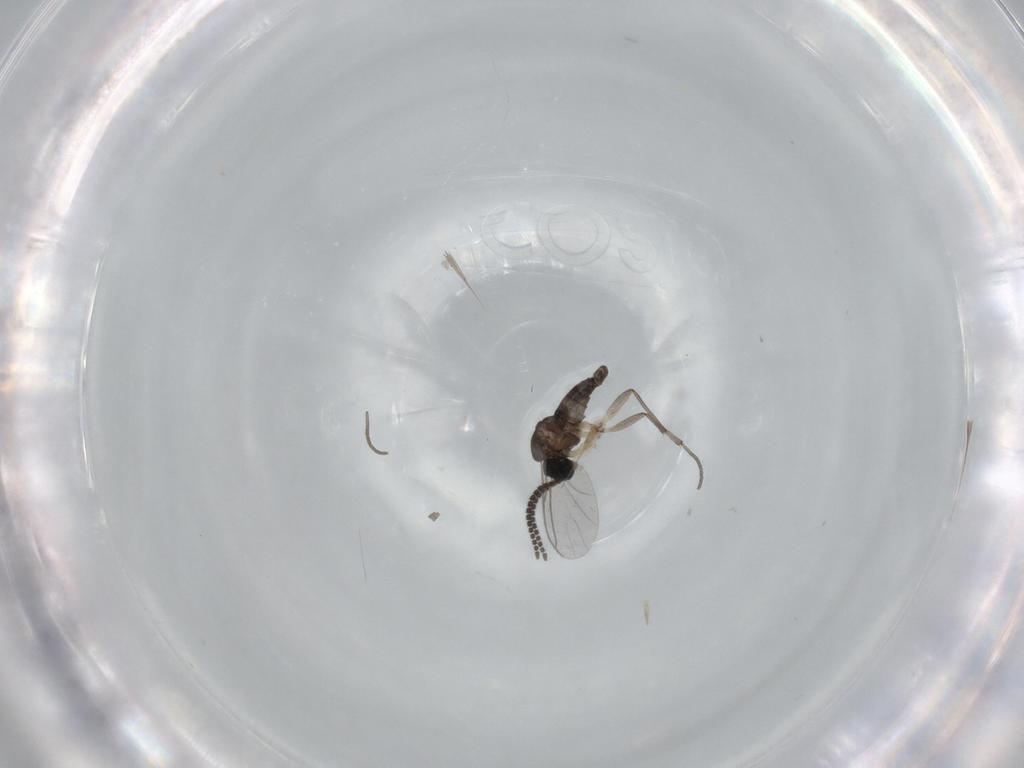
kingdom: Animalia
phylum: Arthropoda
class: Insecta
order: Diptera
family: Sciaridae
